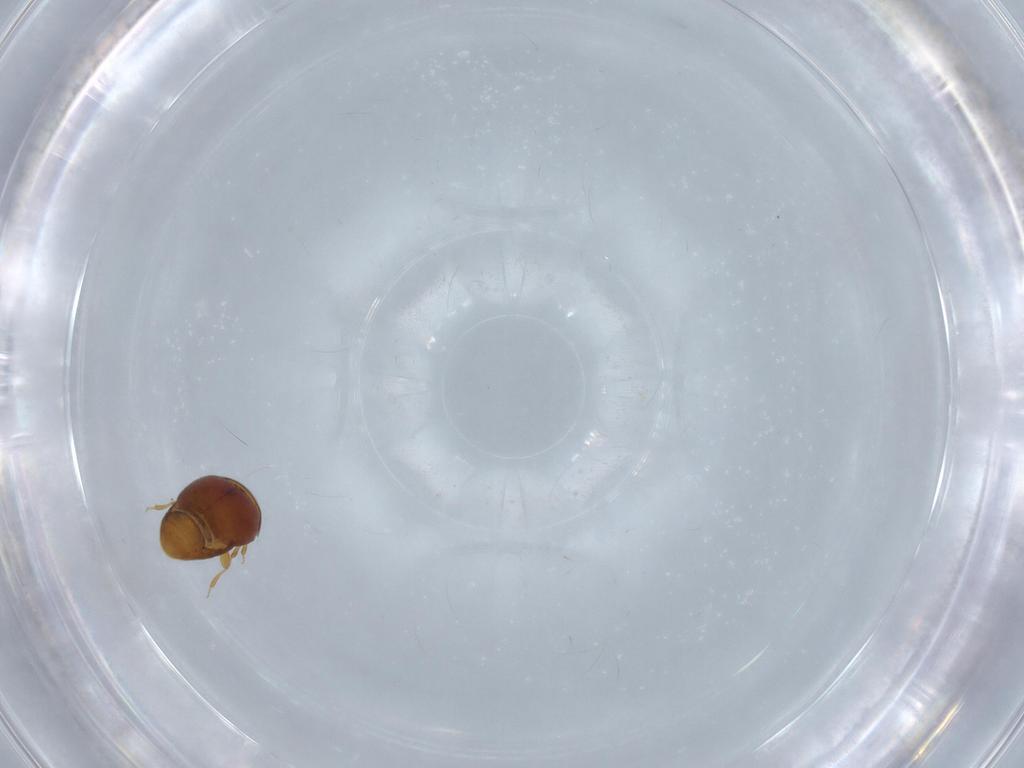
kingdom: Animalia
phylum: Arthropoda
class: Insecta
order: Coleoptera
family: Corylophidae
